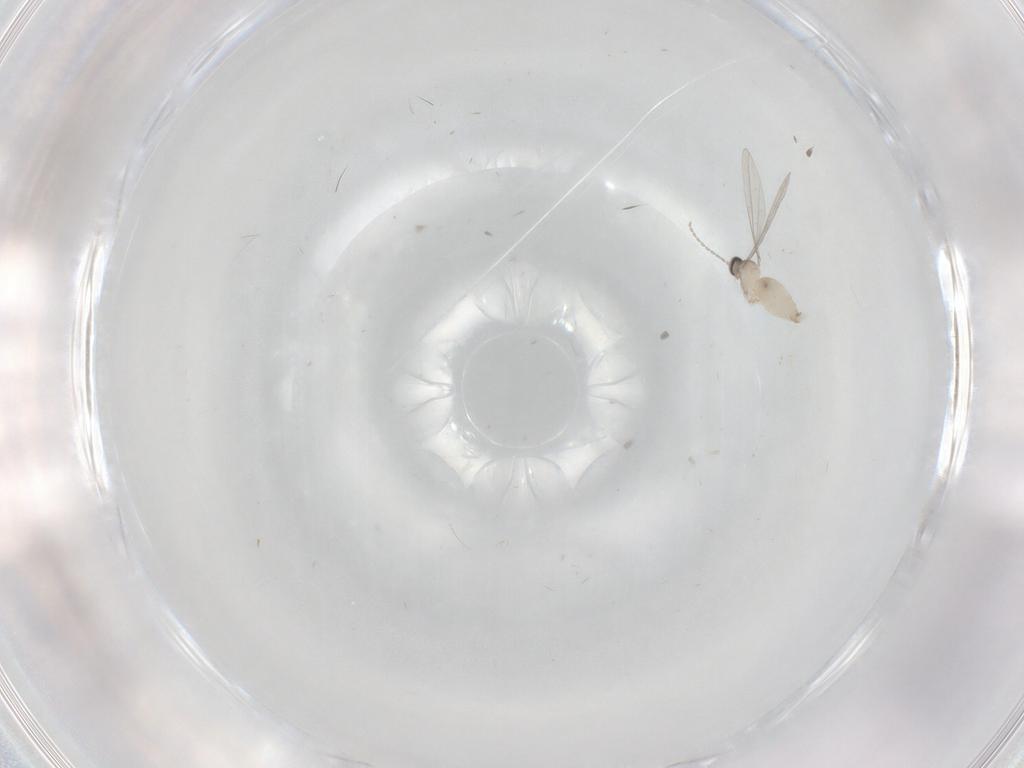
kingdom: Animalia
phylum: Arthropoda
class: Insecta
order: Diptera
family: Cecidomyiidae
